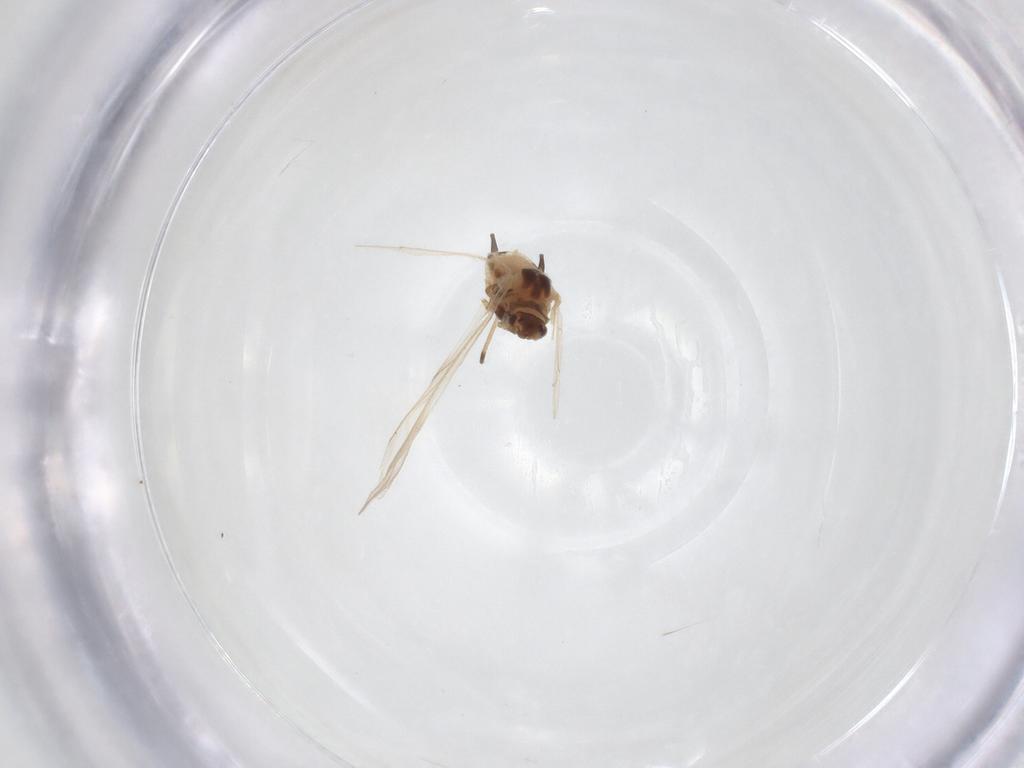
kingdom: Animalia
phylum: Arthropoda
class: Insecta
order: Hemiptera
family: Aphididae
